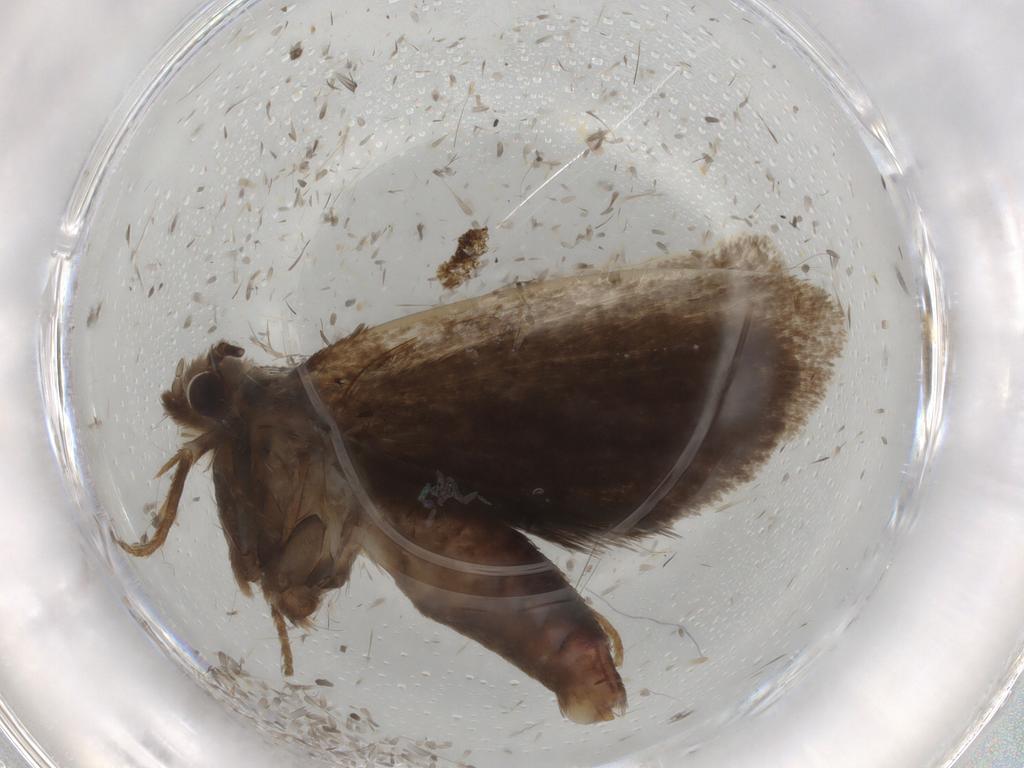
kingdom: Animalia
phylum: Arthropoda
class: Insecta
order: Lepidoptera
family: Tineidae
